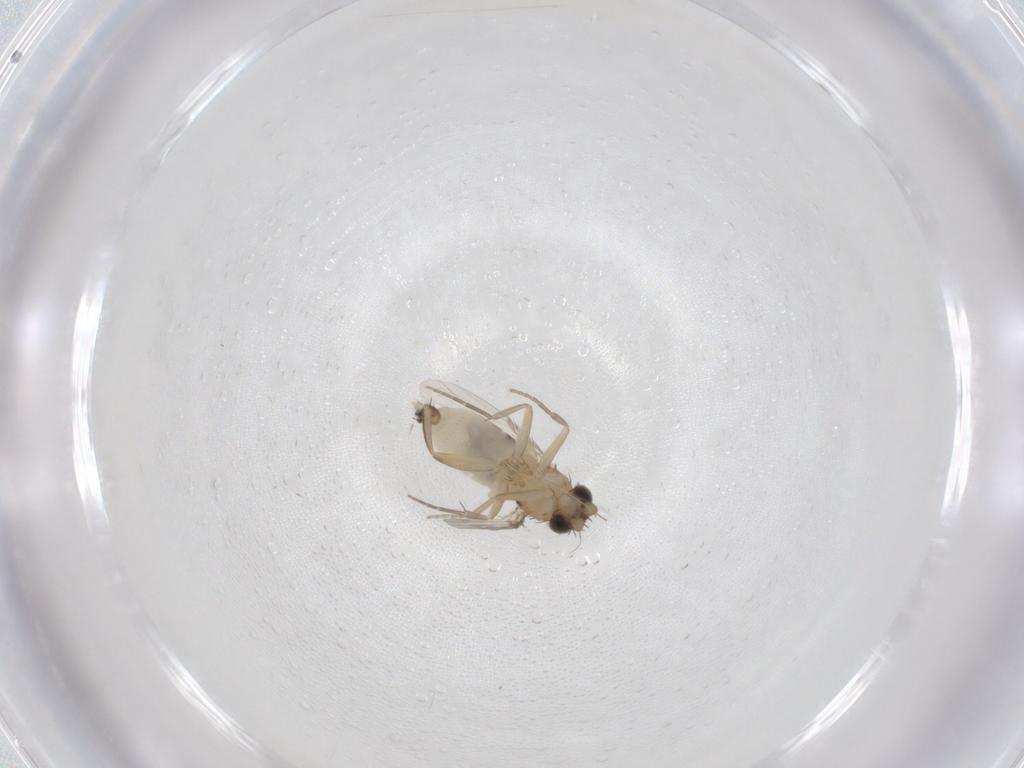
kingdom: Animalia
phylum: Arthropoda
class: Insecta
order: Diptera
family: Phoridae
